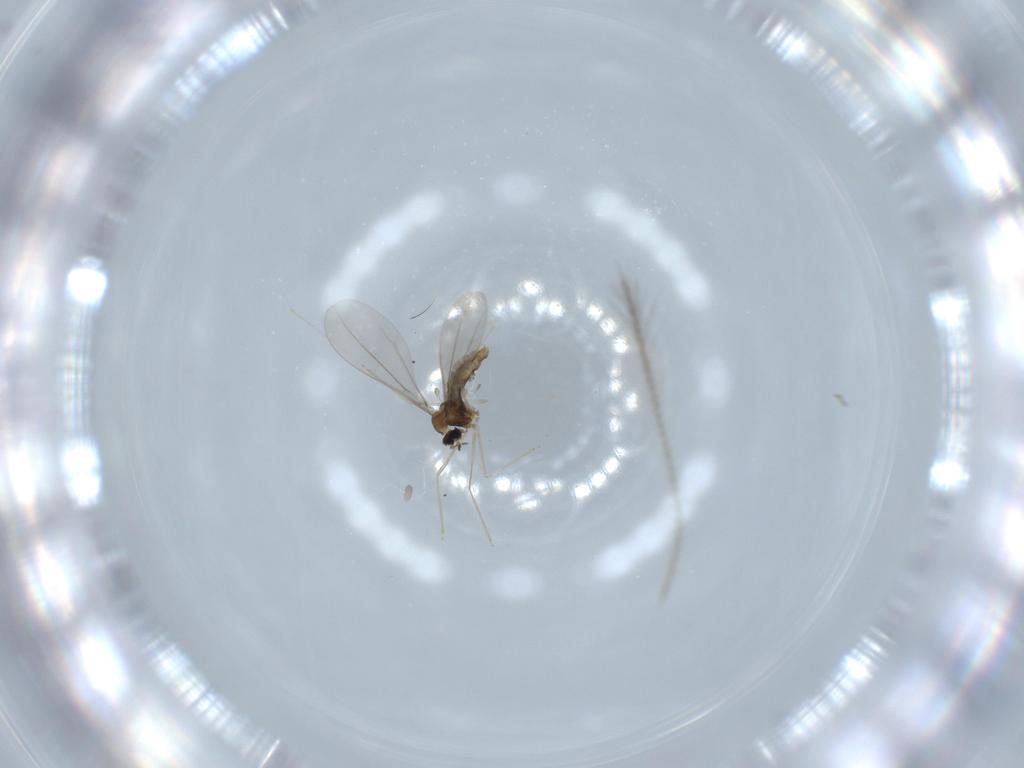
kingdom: Animalia
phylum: Arthropoda
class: Insecta
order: Diptera
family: Cecidomyiidae
